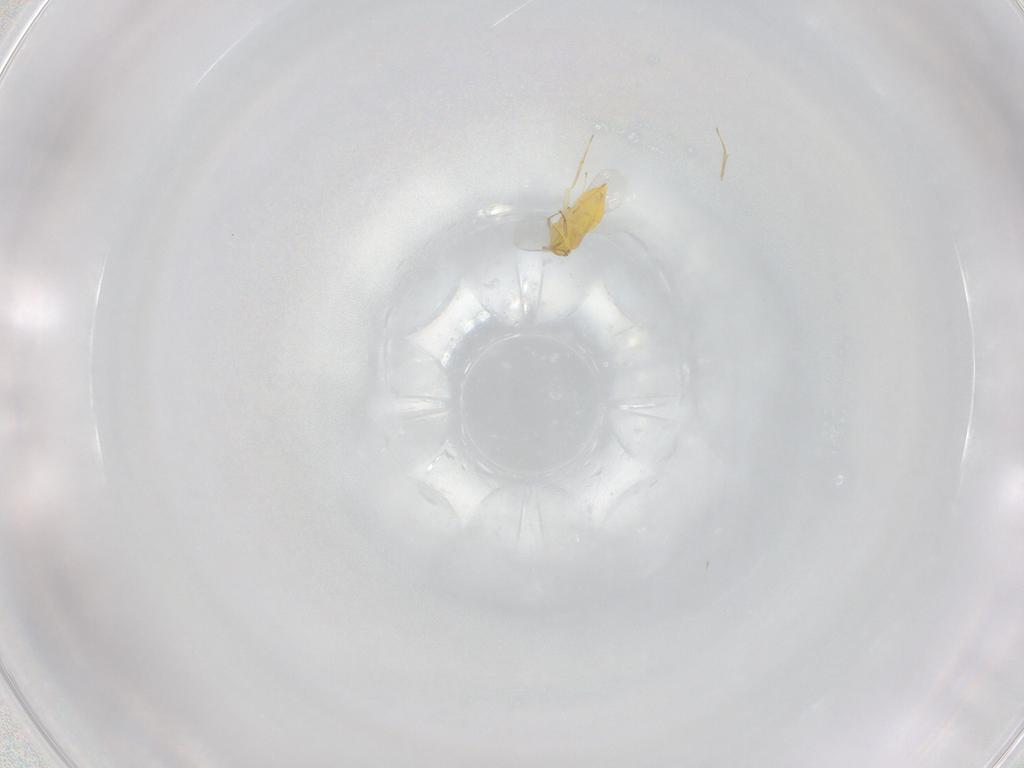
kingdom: Animalia
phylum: Arthropoda
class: Insecta
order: Hymenoptera
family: Aphelinidae
